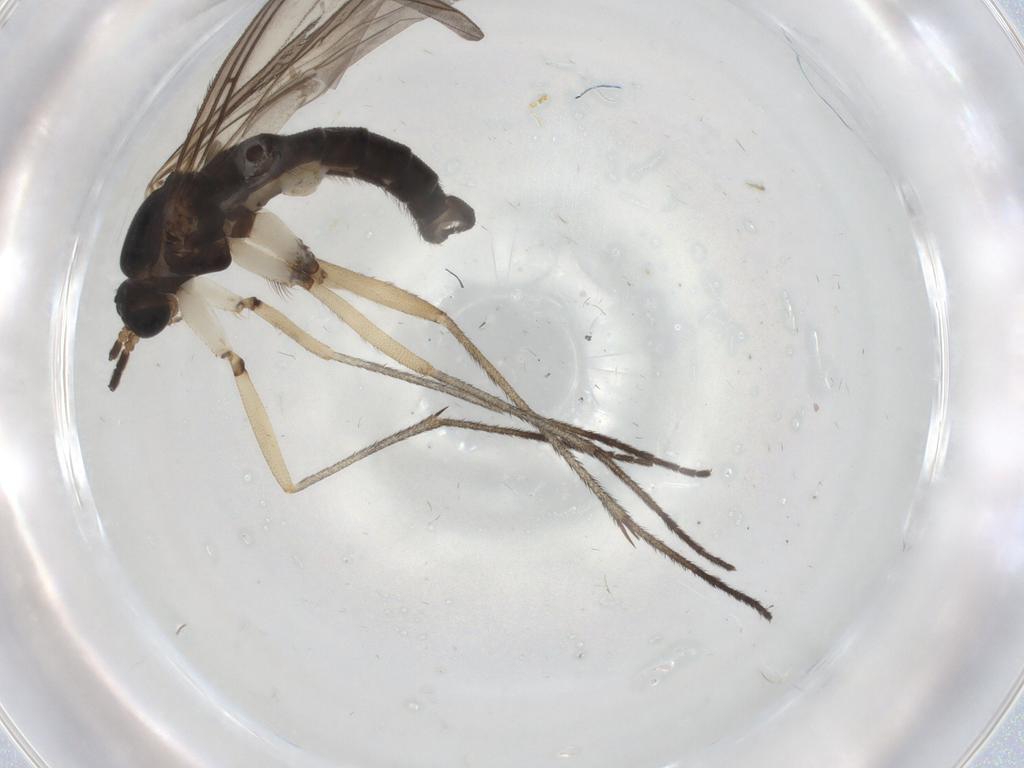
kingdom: Animalia
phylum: Arthropoda
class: Insecta
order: Diptera
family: Sciaridae
